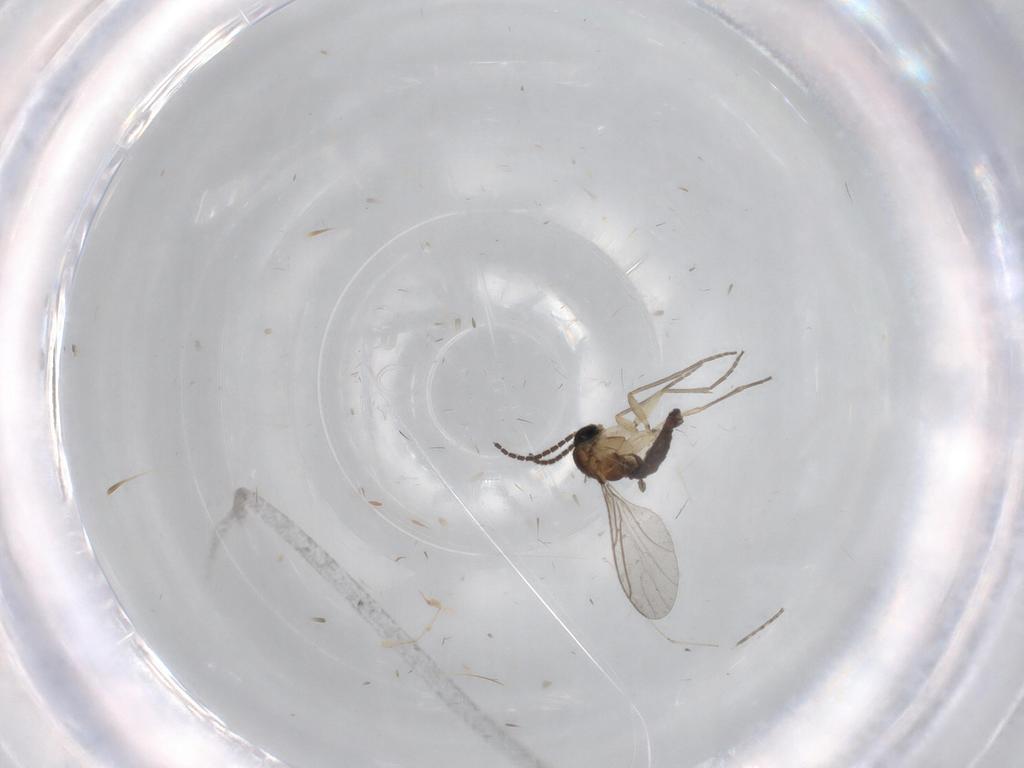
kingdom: Animalia
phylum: Arthropoda
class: Insecta
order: Diptera
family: Sciaridae
